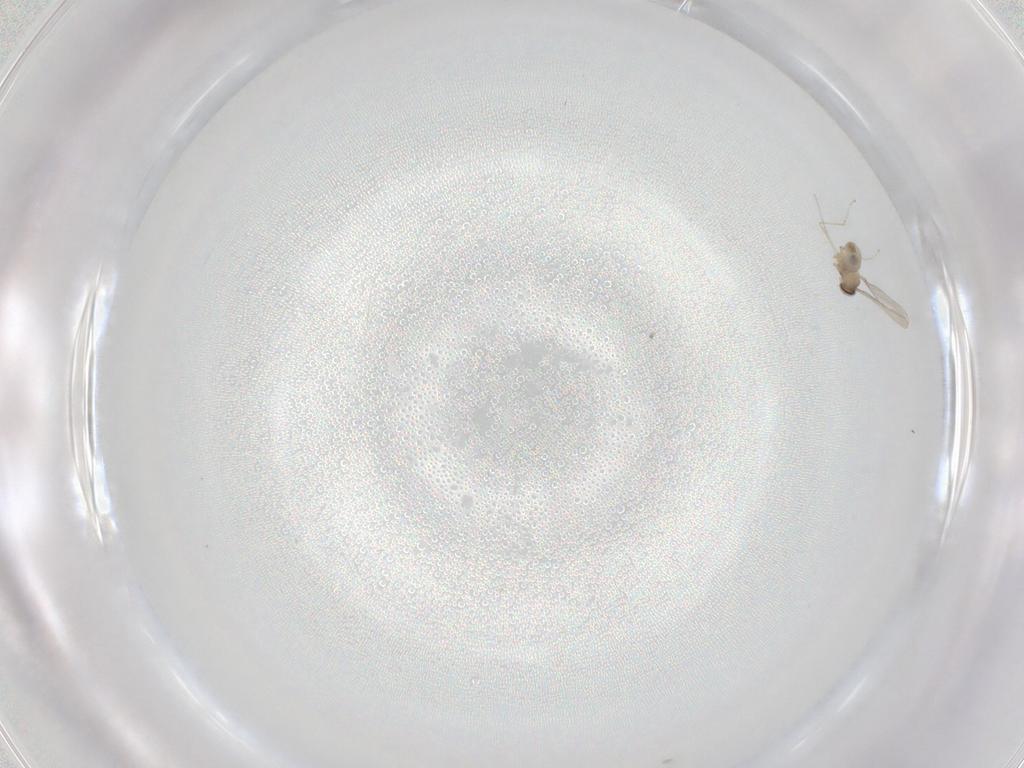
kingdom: Animalia
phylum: Arthropoda
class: Insecta
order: Diptera
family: Cecidomyiidae
